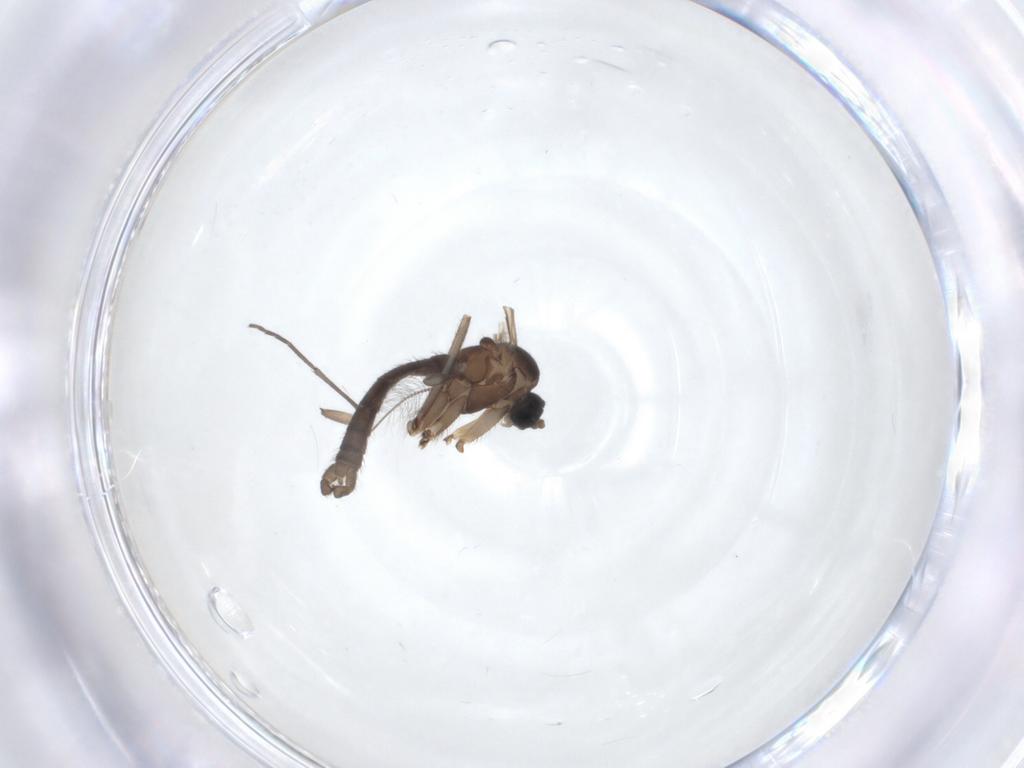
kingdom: Animalia
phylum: Arthropoda
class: Insecta
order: Diptera
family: Sciaridae
